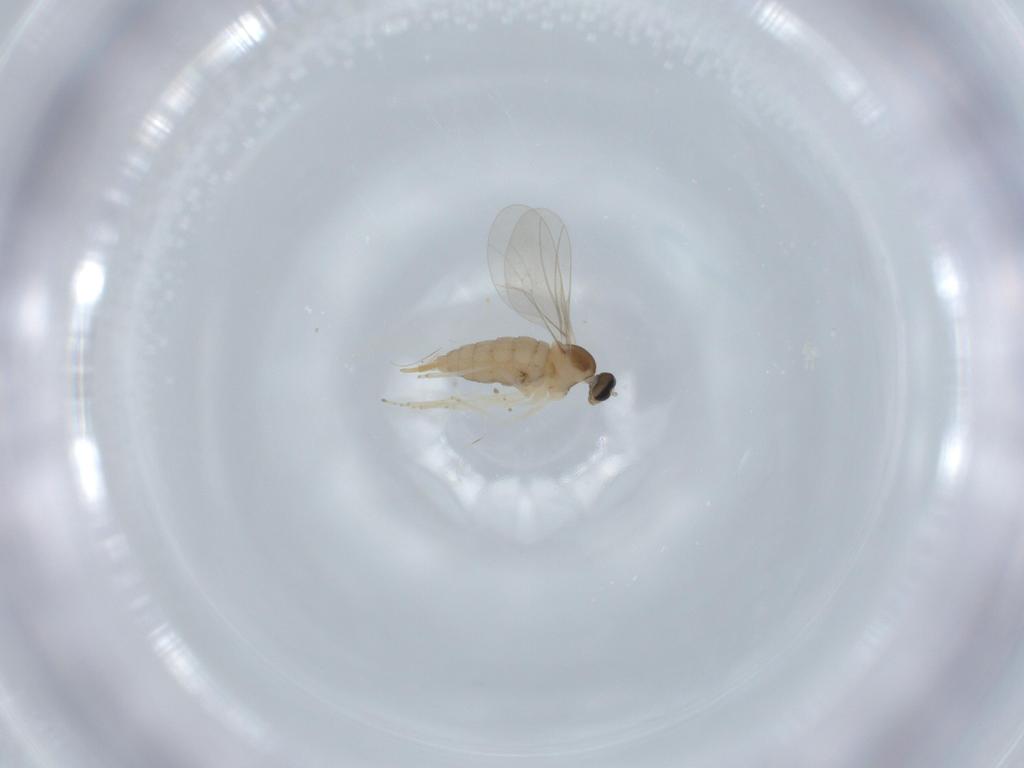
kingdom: Animalia
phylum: Arthropoda
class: Insecta
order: Diptera
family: Cecidomyiidae
